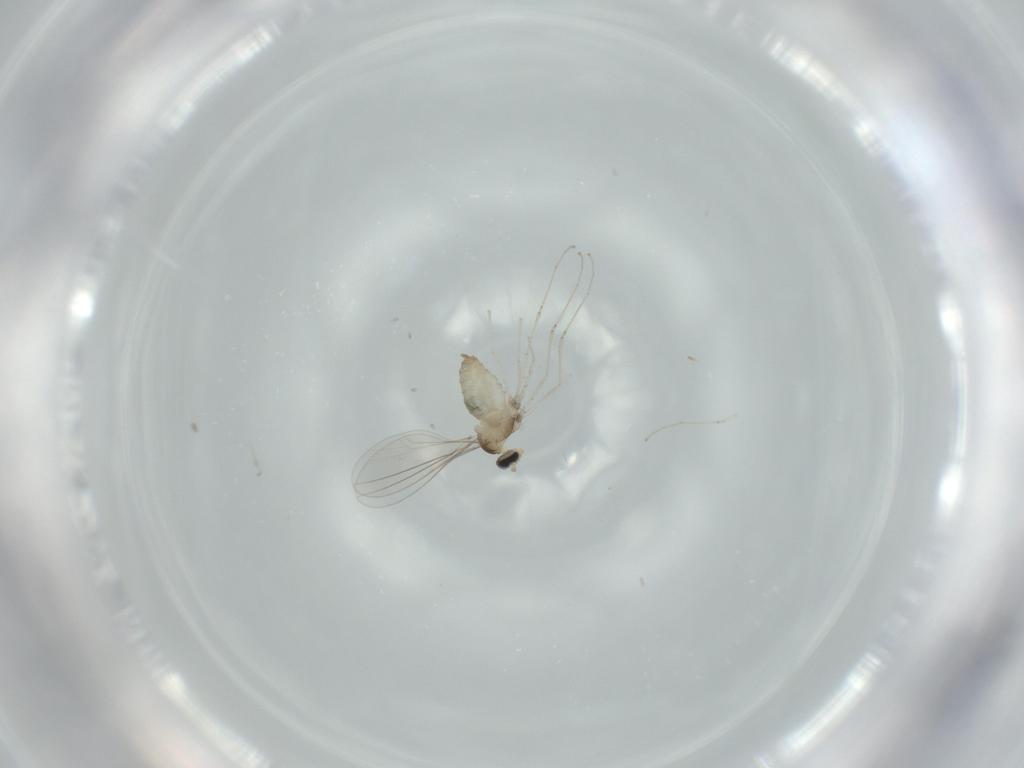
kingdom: Animalia
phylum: Arthropoda
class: Insecta
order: Diptera
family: Cecidomyiidae
